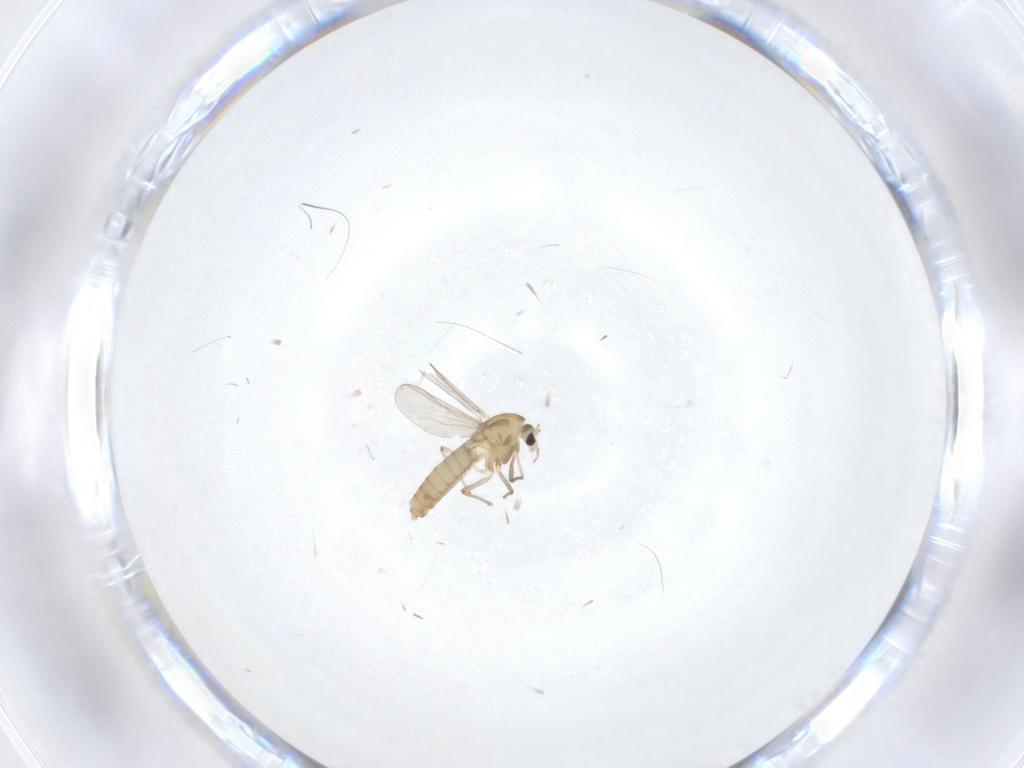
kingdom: Animalia
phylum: Arthropoda
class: Insecta
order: Diptera
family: Chironomidae
